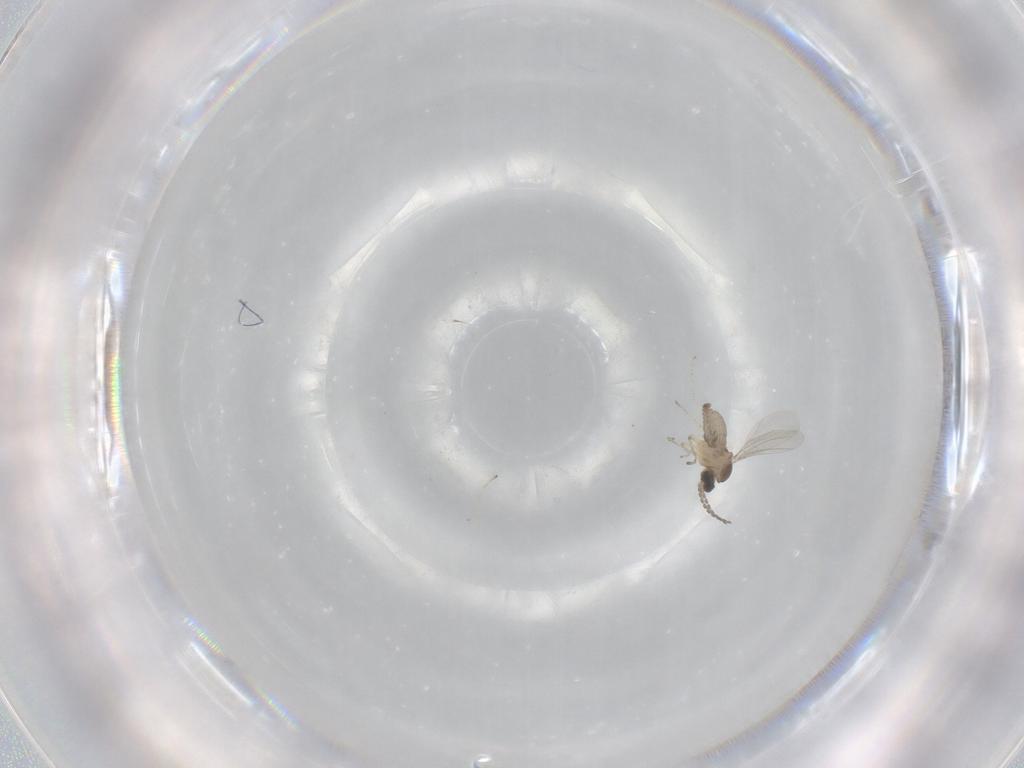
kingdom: Animalia
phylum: Arthropoda
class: Insecta
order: Diptera
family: Cecidomyiidae
